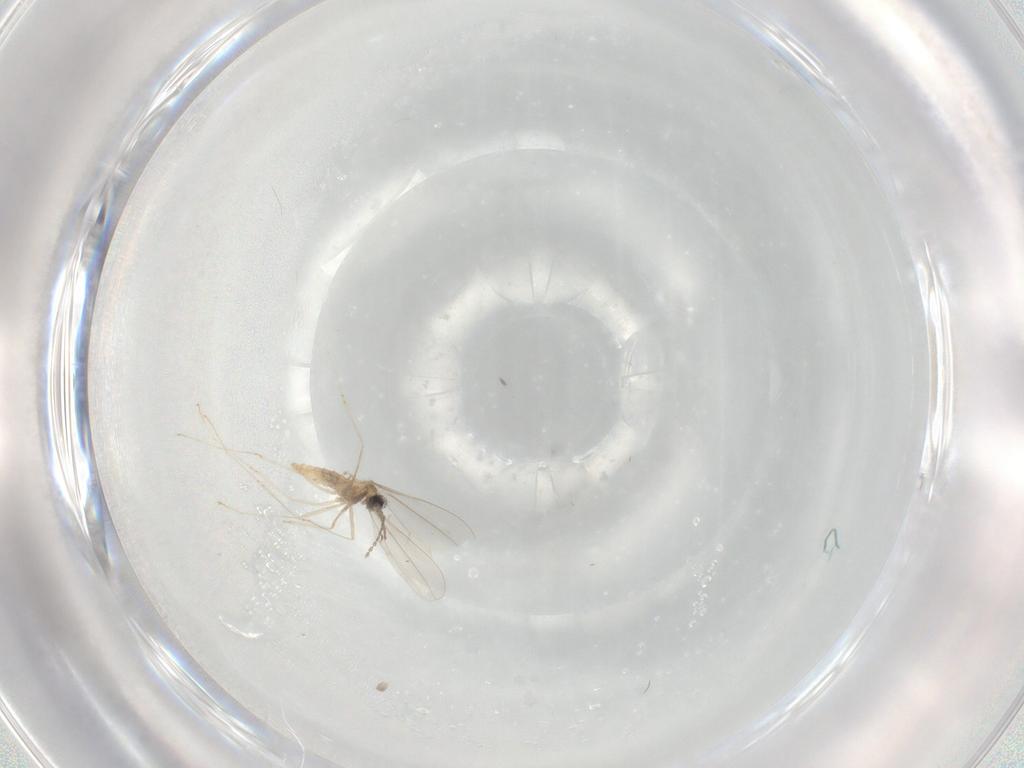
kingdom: Animalia
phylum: Arthropoda
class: Insecta
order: Diptera
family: Cecidomyiidae
